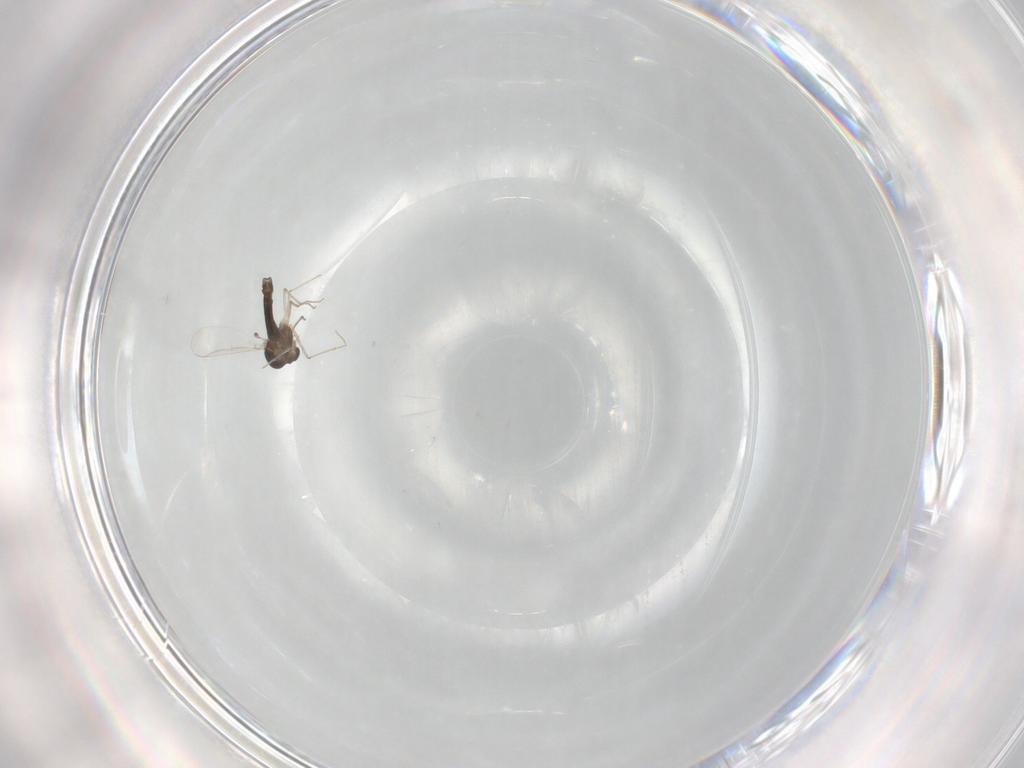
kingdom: Animalia
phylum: Arthropoda
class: Insecta
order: Diptera
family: Chironomidae
